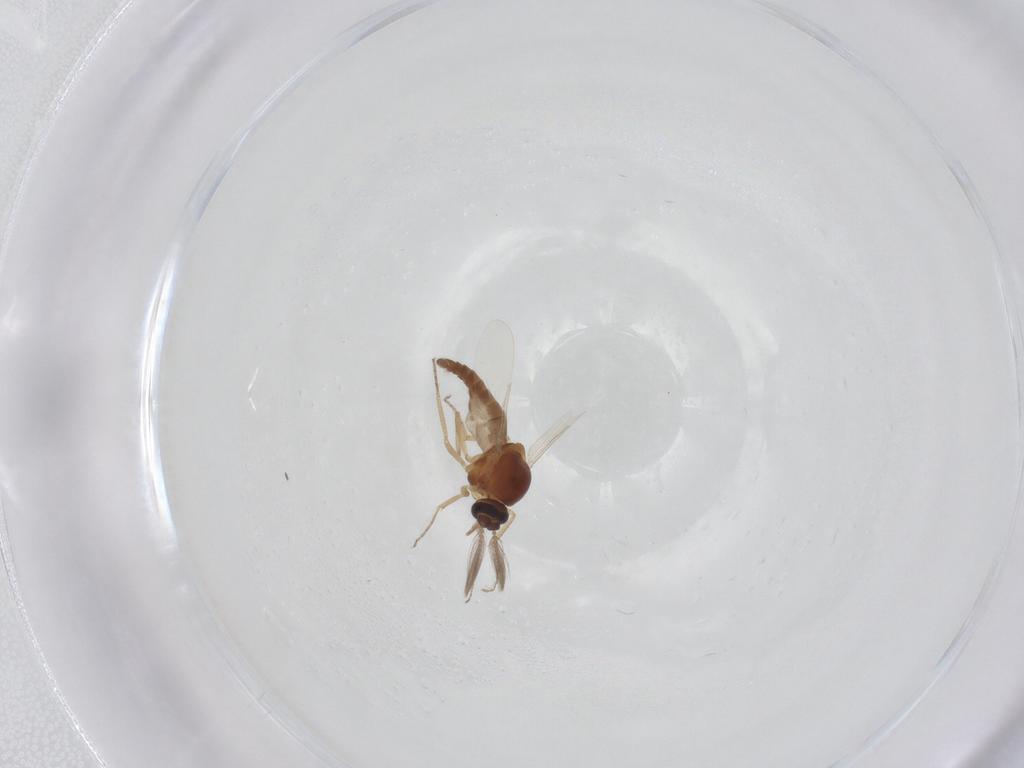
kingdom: Animalia
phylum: Arthropoda
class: Insecta
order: Diptera
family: Ceratopogonidae
